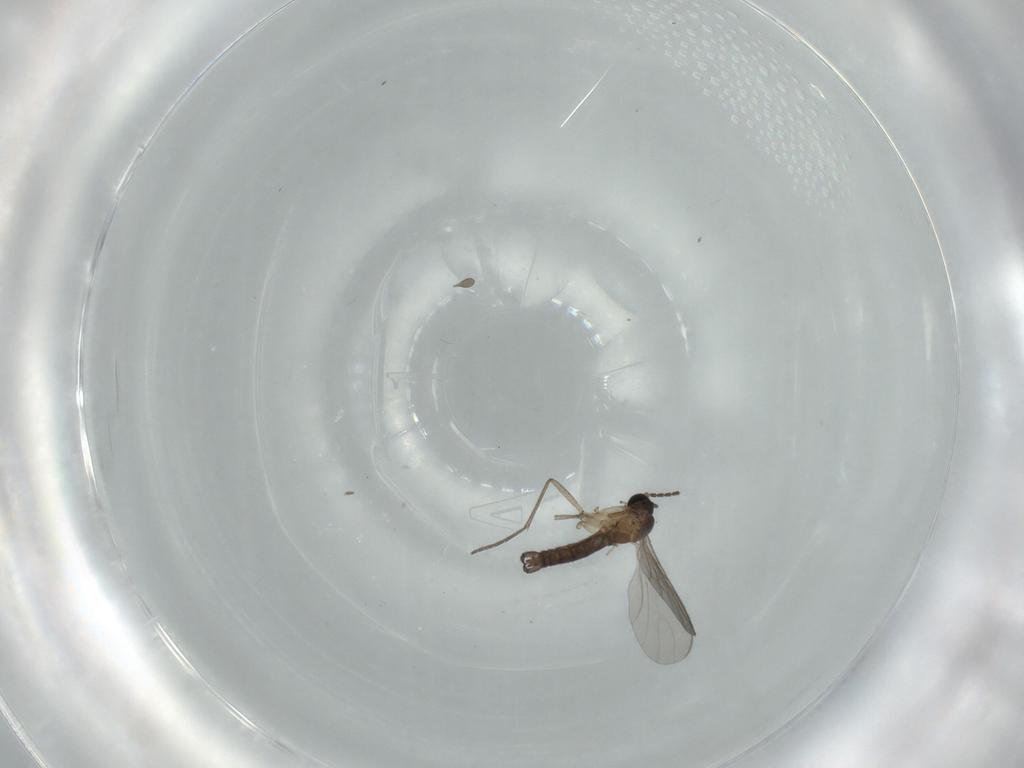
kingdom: Animalia
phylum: Arthropoda
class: Insecta
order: Diptera
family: Sciaridae
